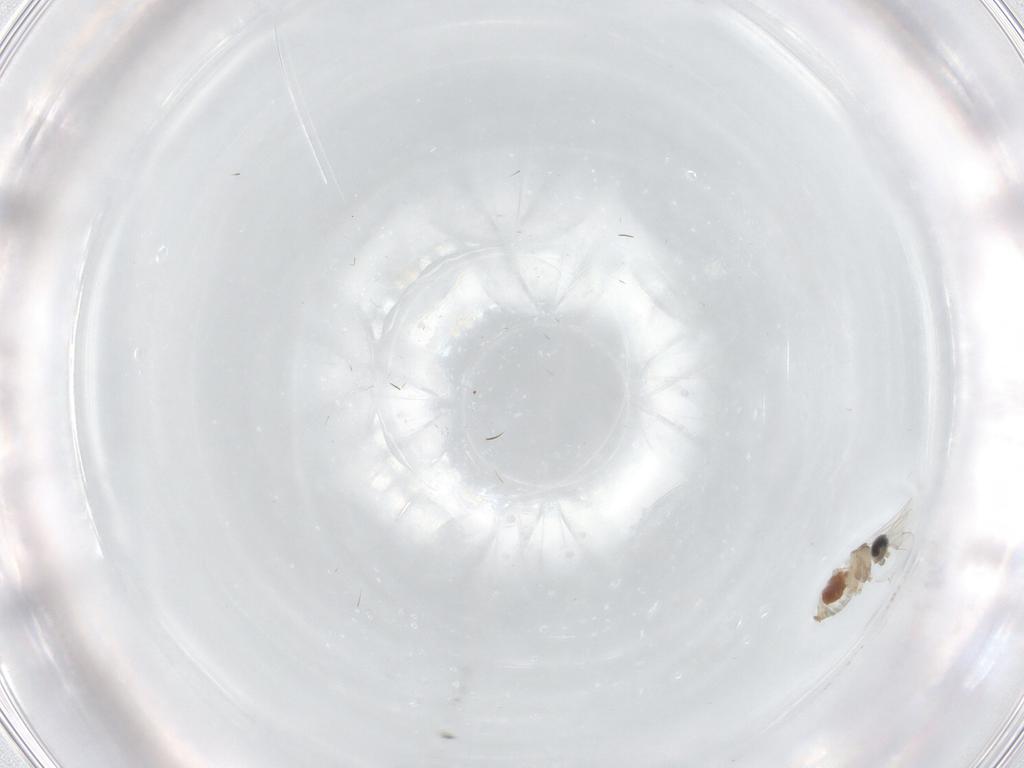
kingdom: Animalia
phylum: Arthropoda
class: Insecta
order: Diptera
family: Cecidomyiidae
